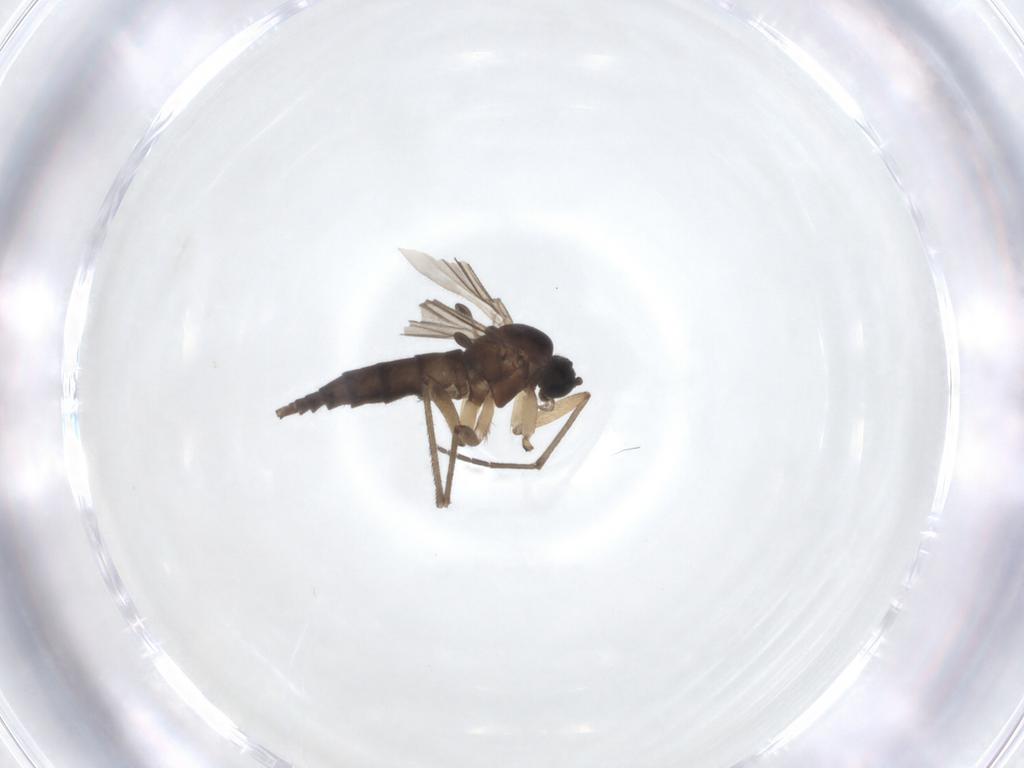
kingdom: Animalia
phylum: Arthropoda
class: Insecta
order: Diptera
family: Sciaridae
